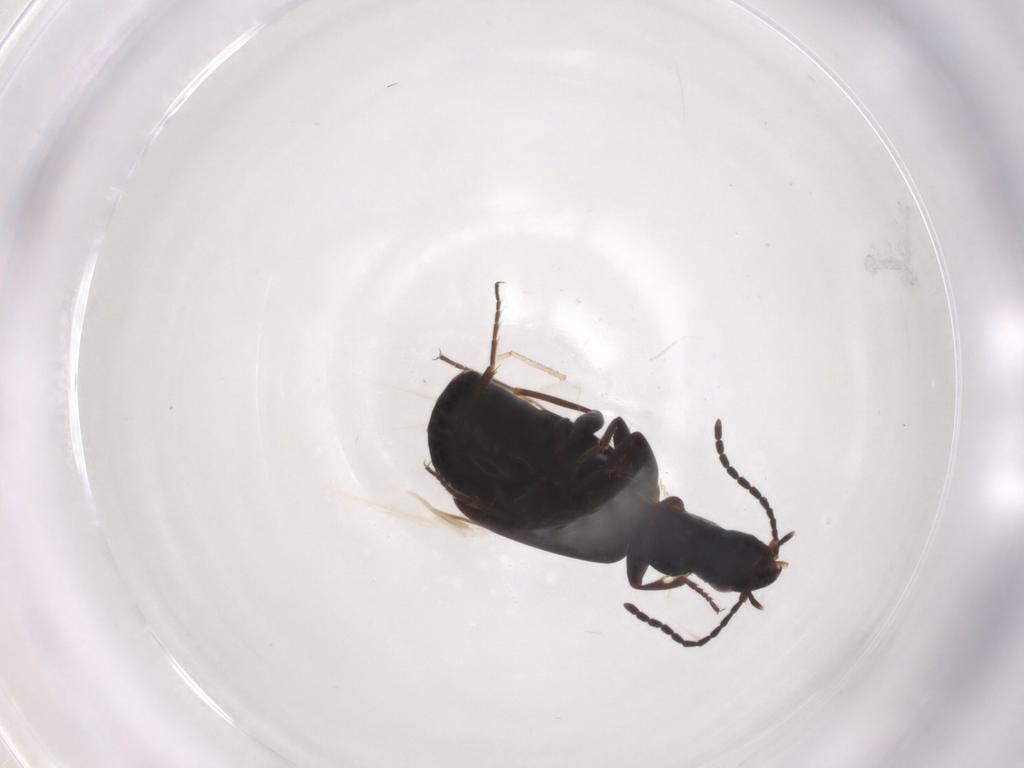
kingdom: Animalia
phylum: Arthropoda
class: Insecta
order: Coleoptera
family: Carabidae
